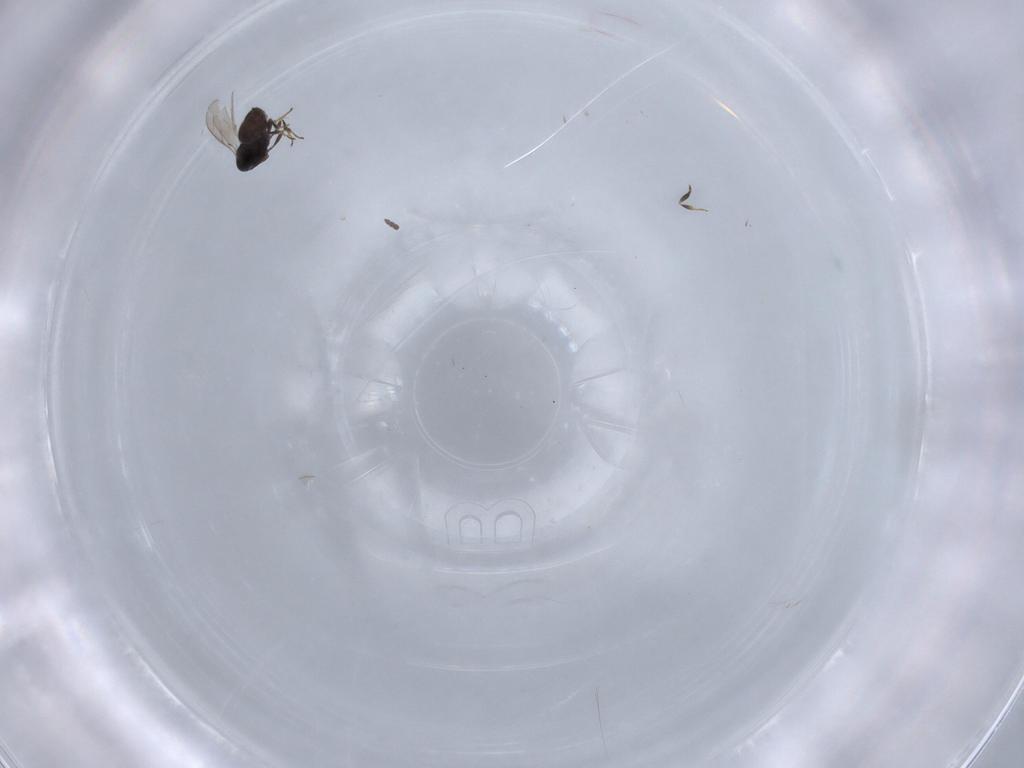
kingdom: Animalia
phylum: Arthropoda
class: Insecta
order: Hymenoptera
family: Scelionidae
